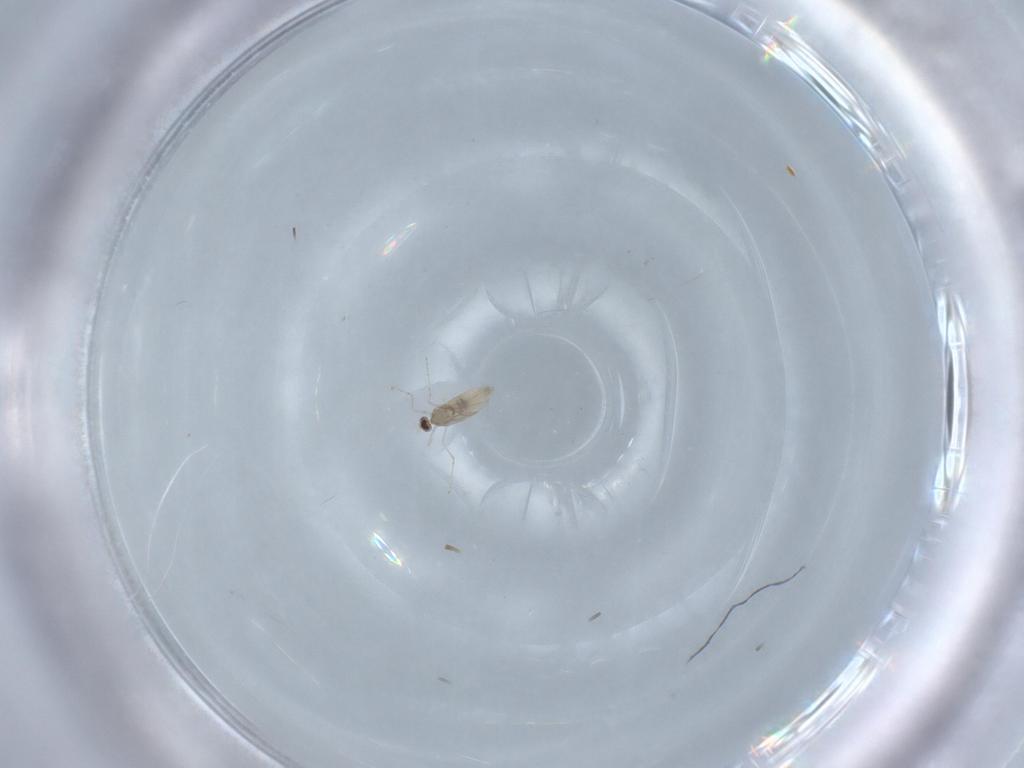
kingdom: Animalia
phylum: Arthropoda
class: Insecta
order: Diptera
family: Cecidomyiidae
